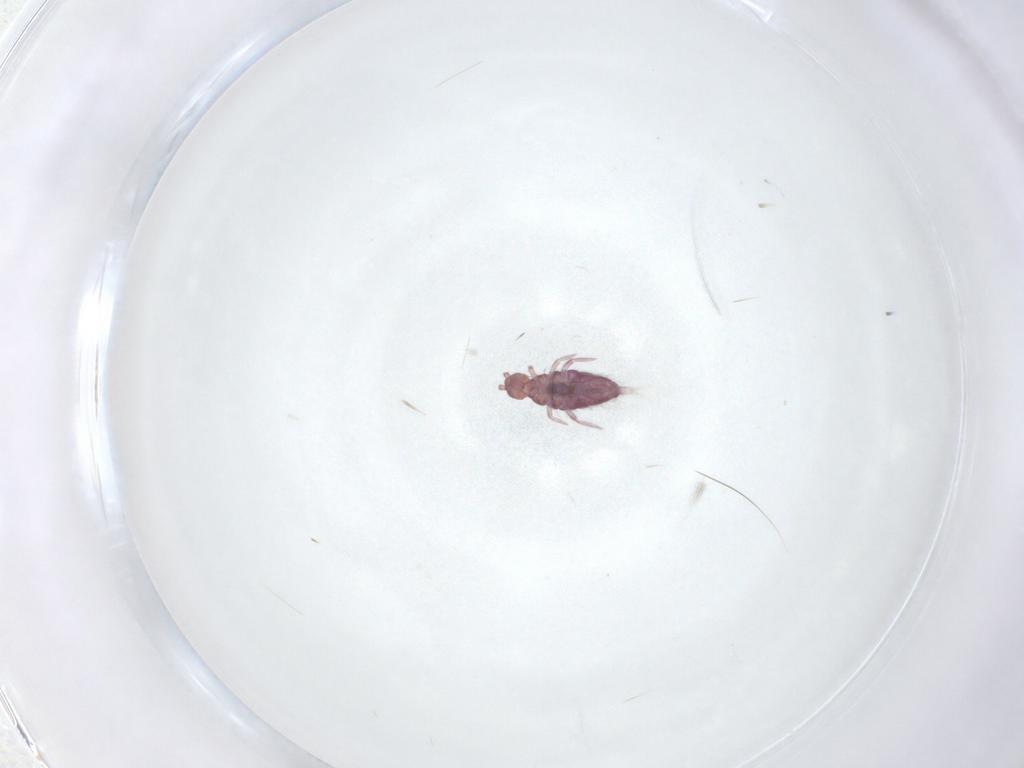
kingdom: Animalia
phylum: Arthropoda
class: Collembola
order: Entomobryomorpha
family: Entomobryidae
